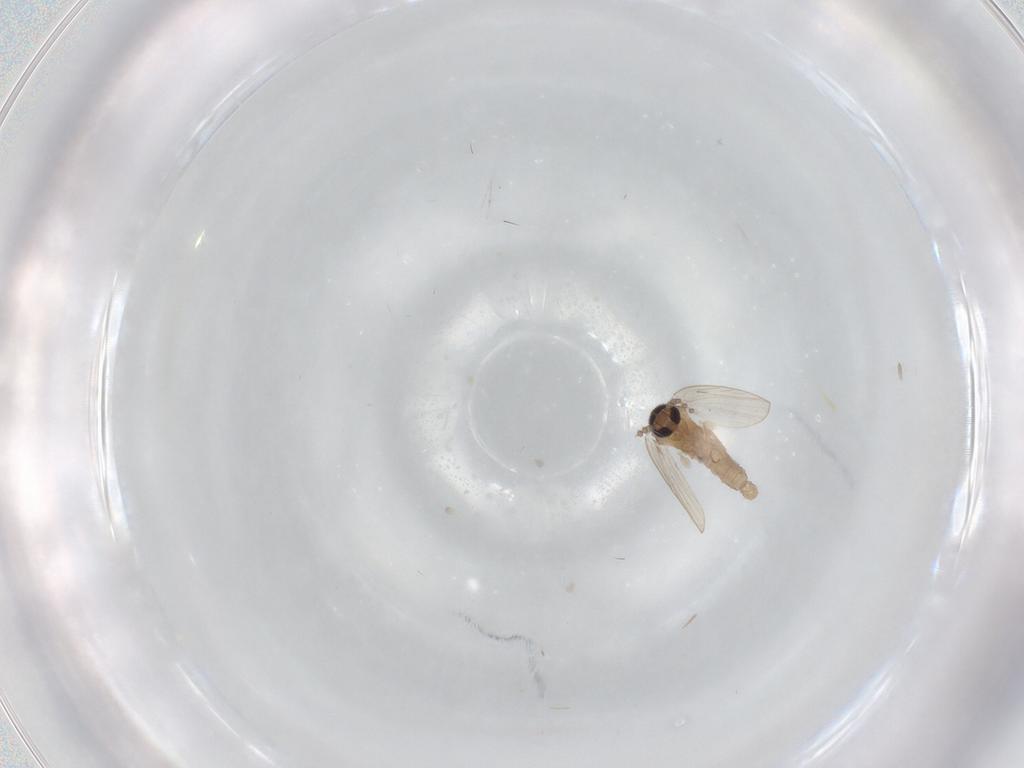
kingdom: Animalia
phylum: Arthropoda
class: Insecta
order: Diptera
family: Psychodidae
